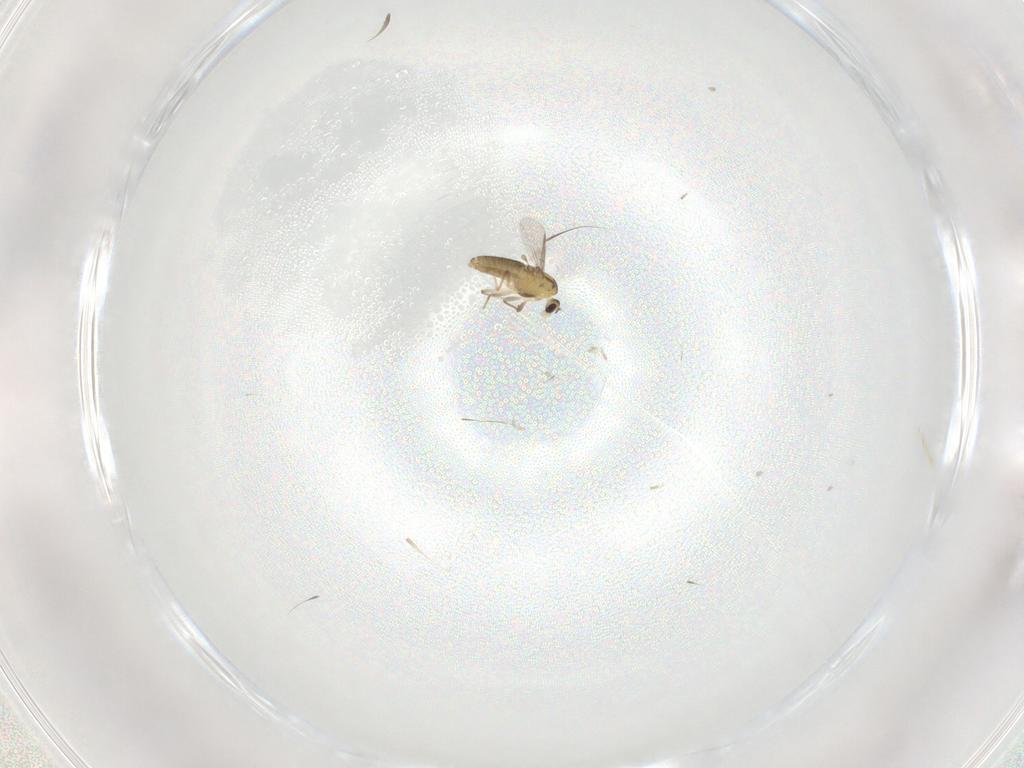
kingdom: Animalia
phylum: Arthropoda
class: Insecta
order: Diptera
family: Chironomidae
